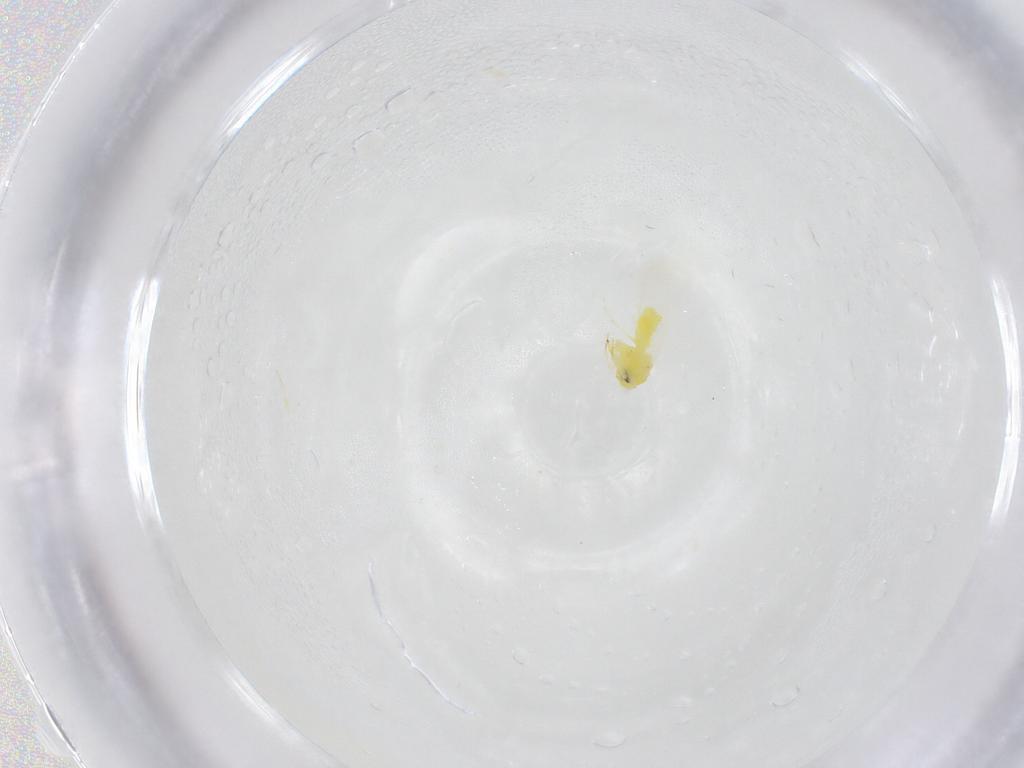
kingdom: Animalia
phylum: Arthropoda
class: Insecta
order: Hemiptera
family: Aleyrodidae
